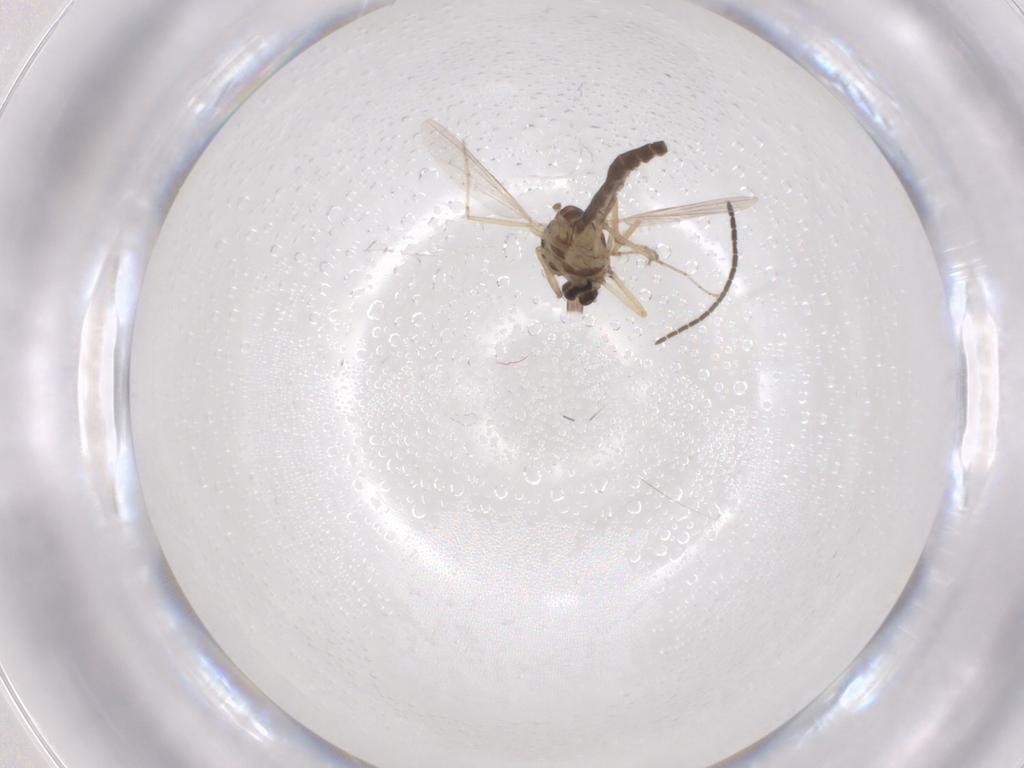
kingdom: Animalia
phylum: Arthropoda
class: Insecta
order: Diptera
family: Ceratopogonidae
